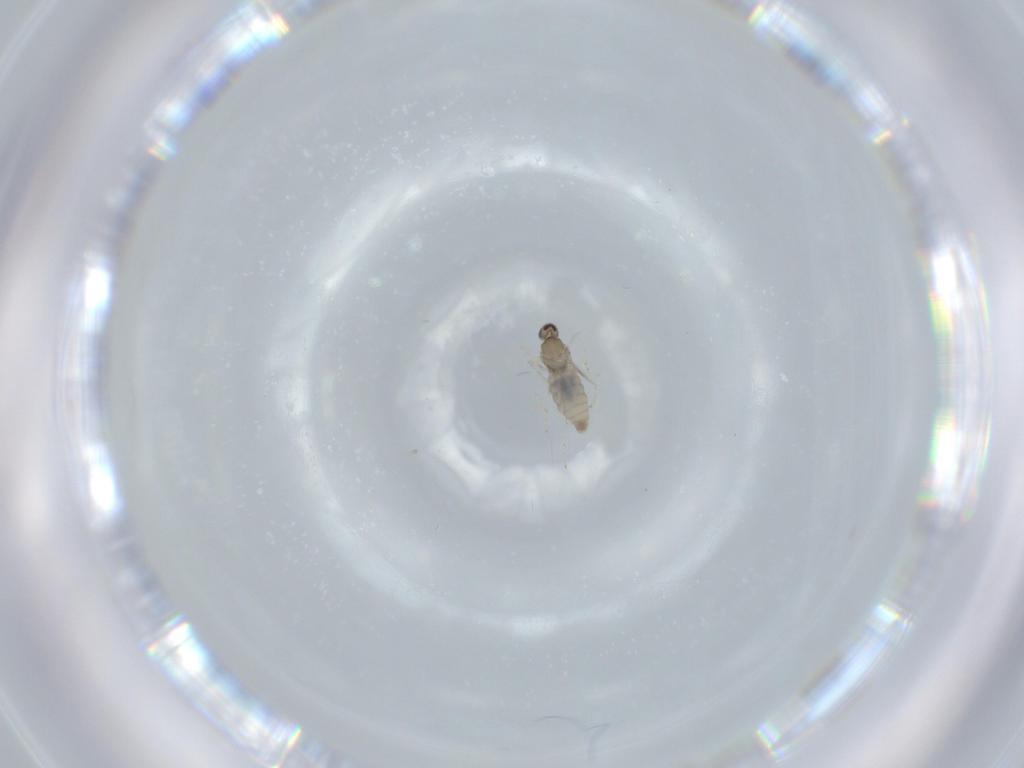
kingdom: Animalia
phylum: Arthropoda
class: Insecta
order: Diptera
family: Cecidomyiidae
